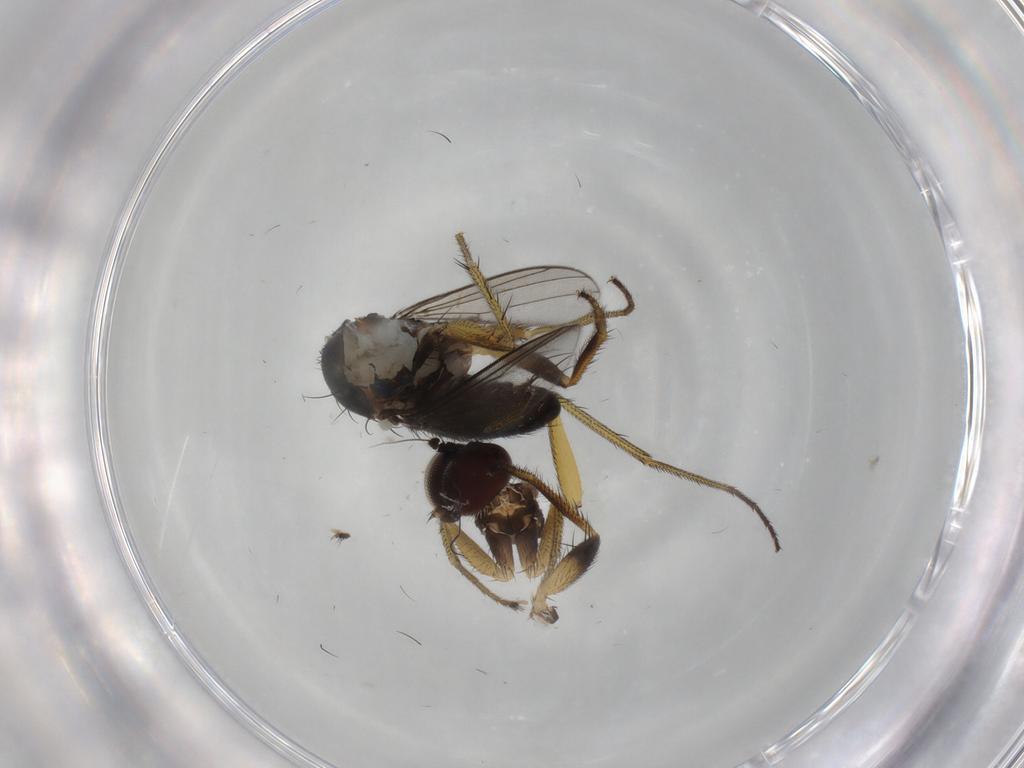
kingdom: Animalia
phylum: Arthropoda
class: Insecta
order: Diptera
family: Dolichopodidae
